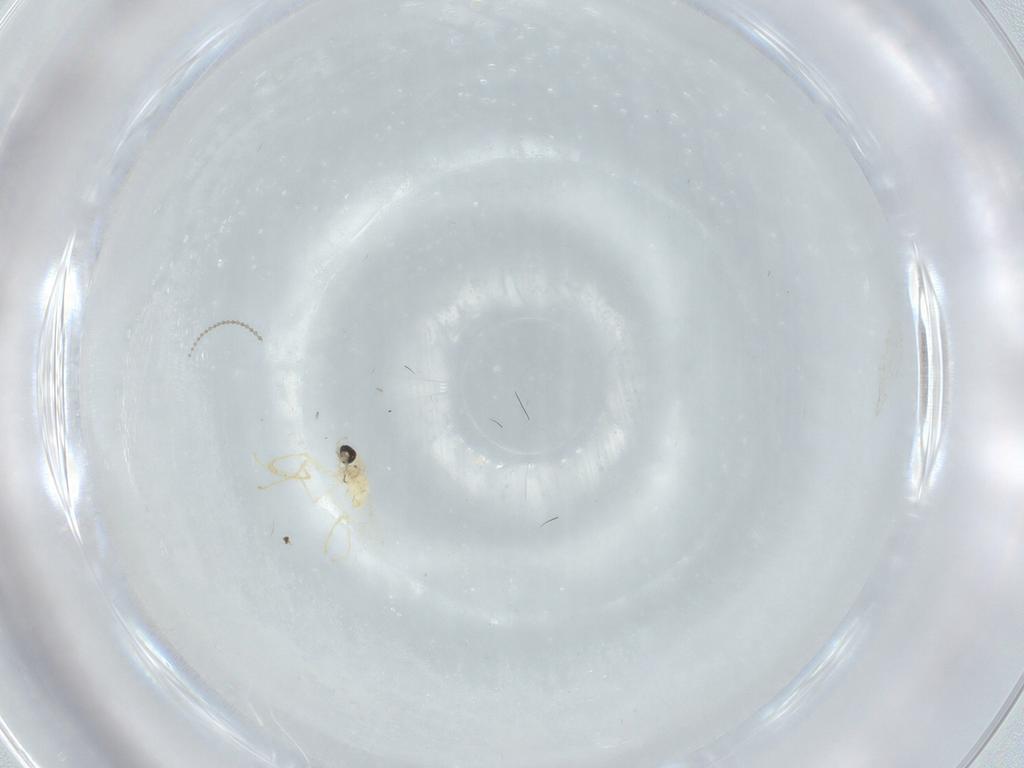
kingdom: Animalia
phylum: Arthropoda
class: Insecta
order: Diptera
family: Cecidomyiidae
